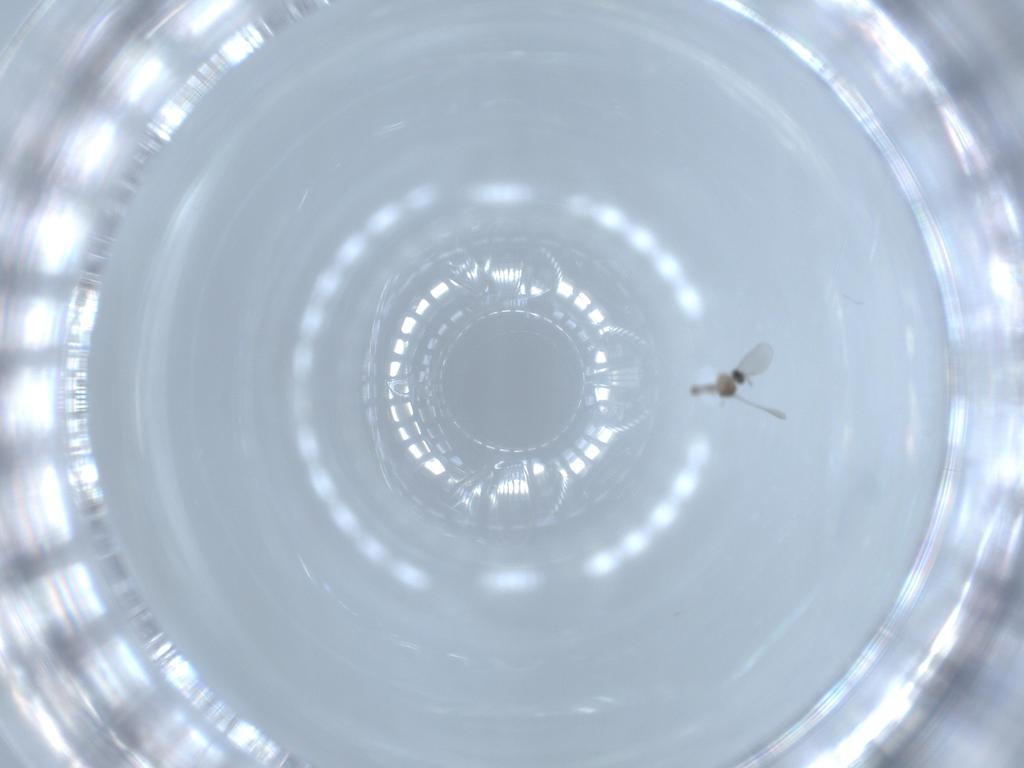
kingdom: Animalia
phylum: Arthropoda
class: Insecta
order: Diptera
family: Cecidomyiidae
